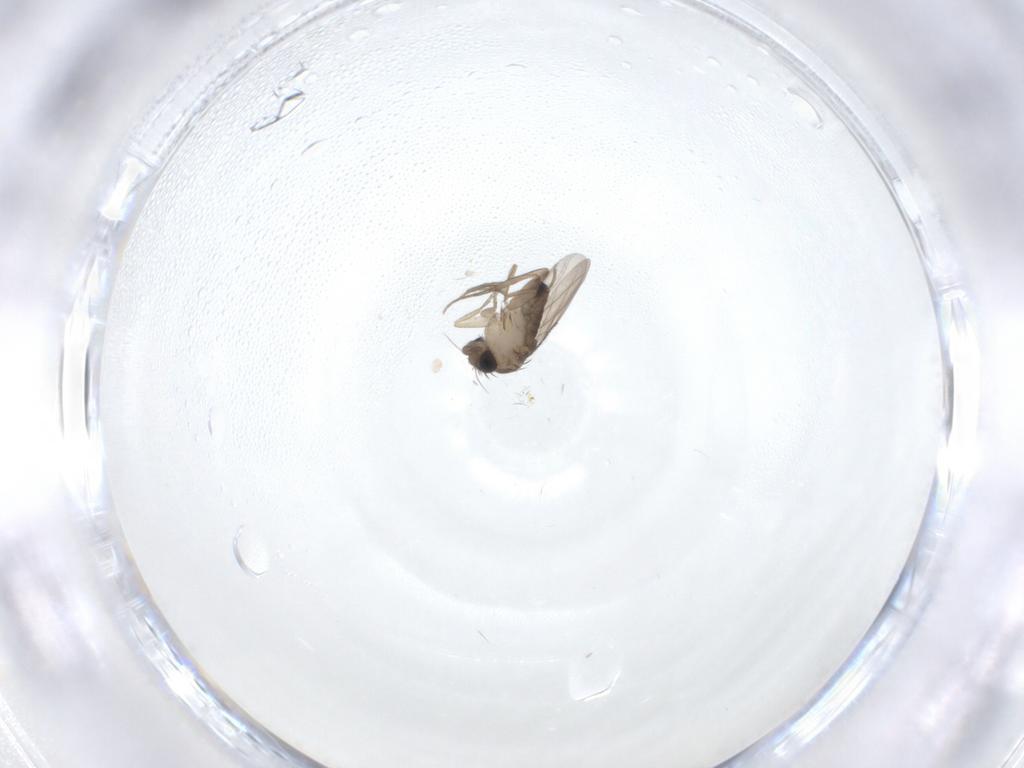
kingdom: Animalia
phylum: Arthropoda
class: Insecta
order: Diptera
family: Phoridae
